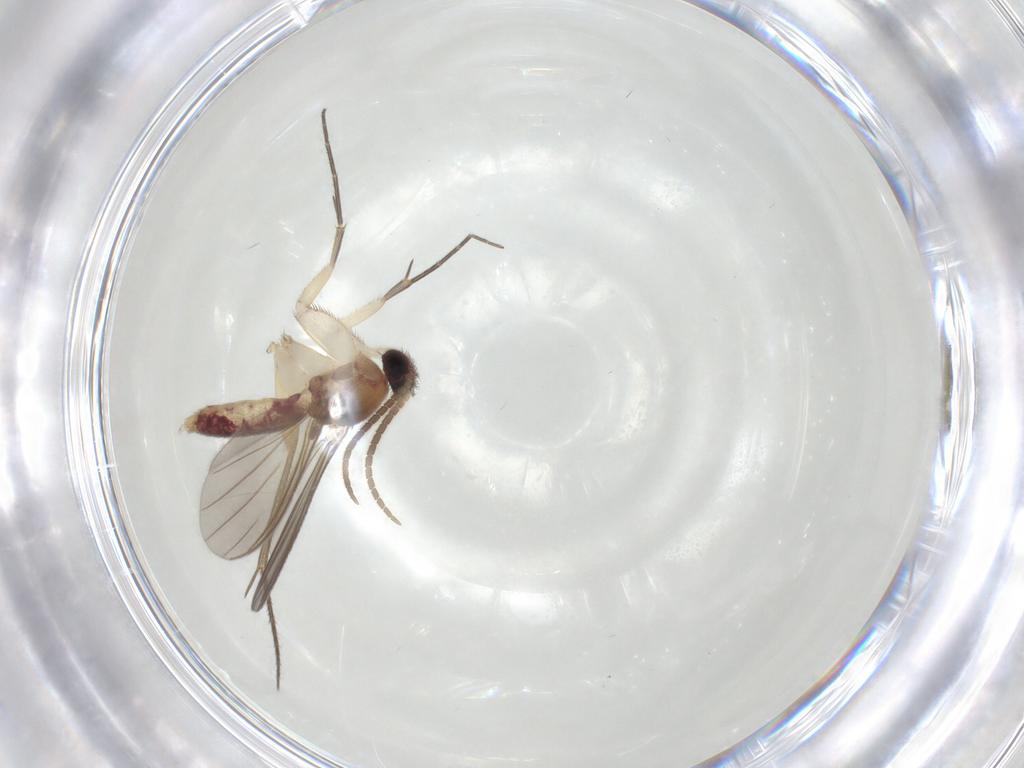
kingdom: Animalia
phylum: Arthropoda
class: Insecta
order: Diptera
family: Mycetophilidae
